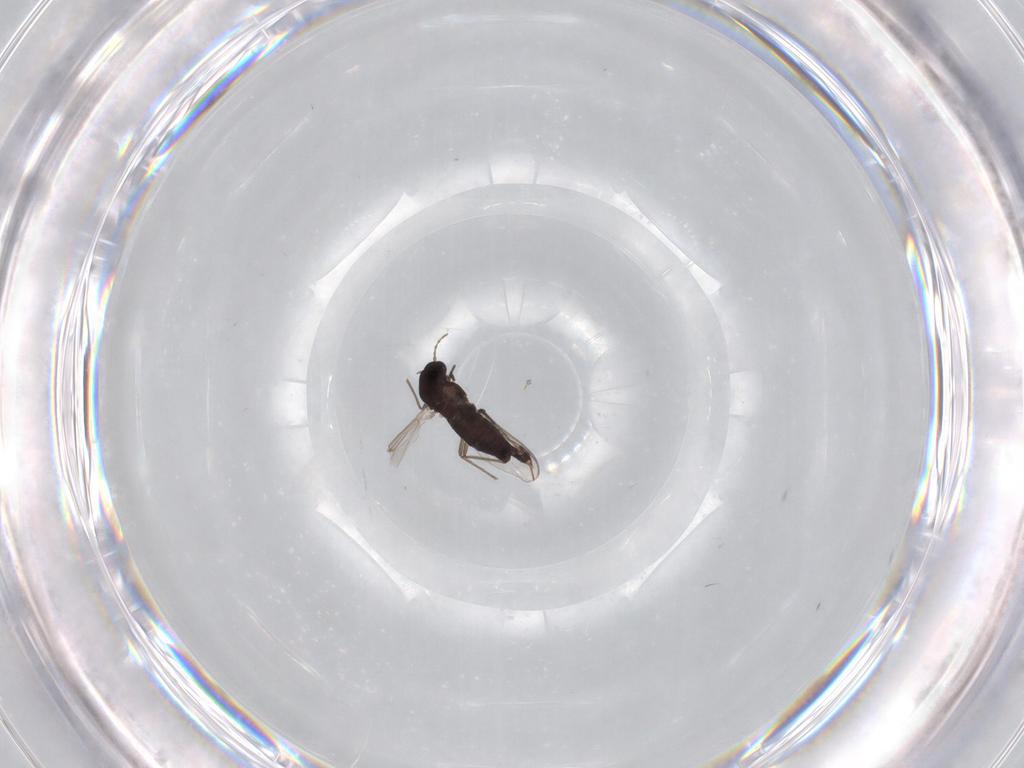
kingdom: Animalia
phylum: Arthropoda
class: Insecta
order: Diptera
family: Chironomidae
